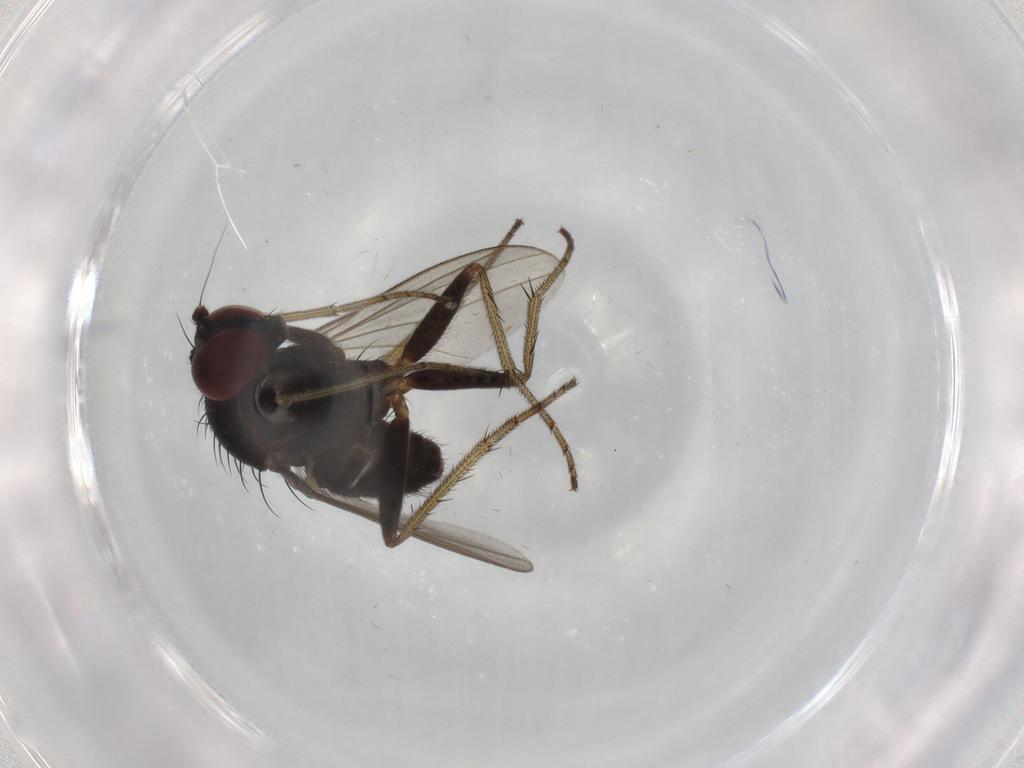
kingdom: Animalia
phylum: Arthropoda
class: Insecta
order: Diptera
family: Dolichopodidae
